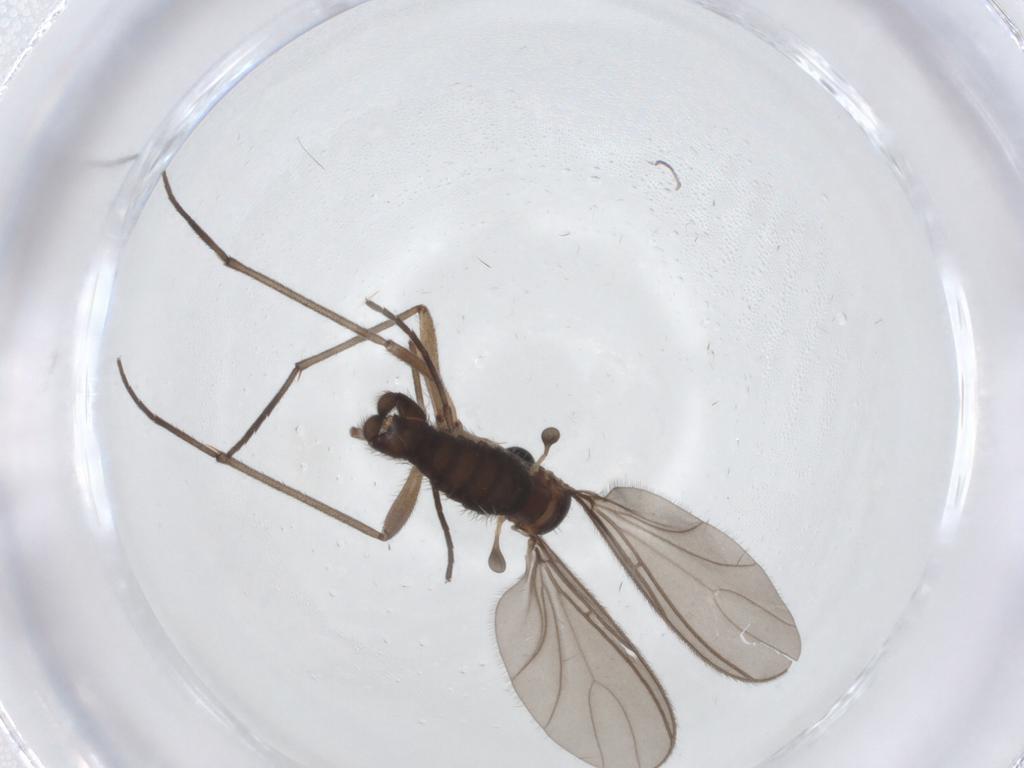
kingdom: Animalia
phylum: Arthropoda
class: Insecta
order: Diptera
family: Sciaridae
